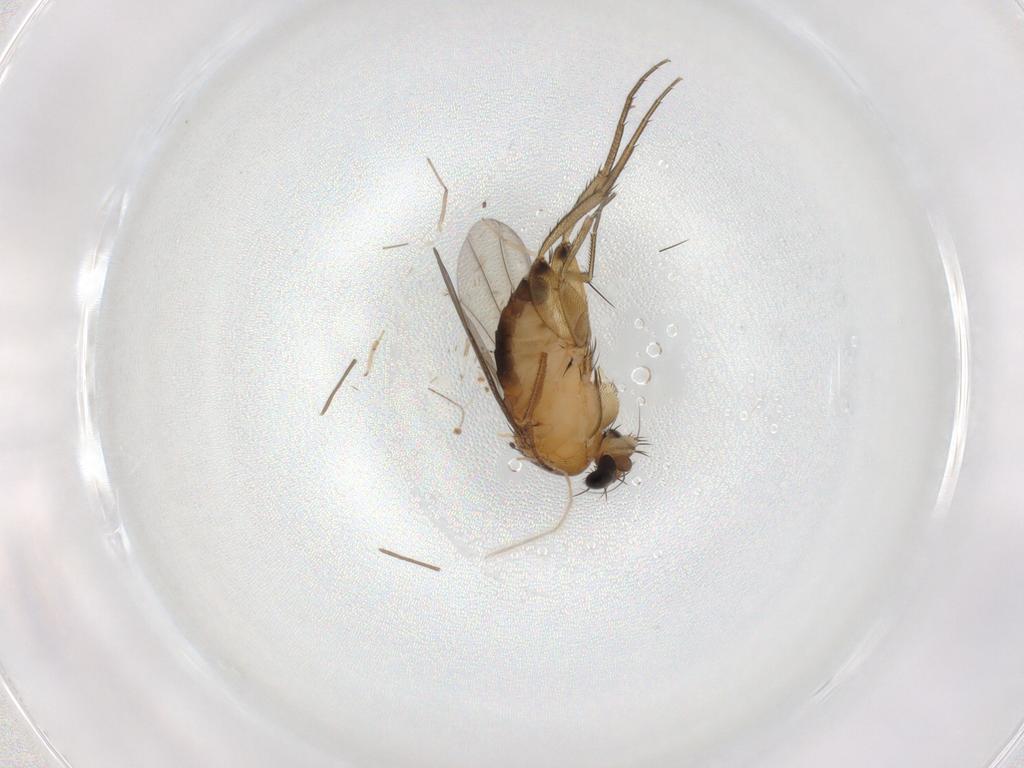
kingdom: Animalia
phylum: Arthropoda
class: Insecta
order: Diptera
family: Phoridae
